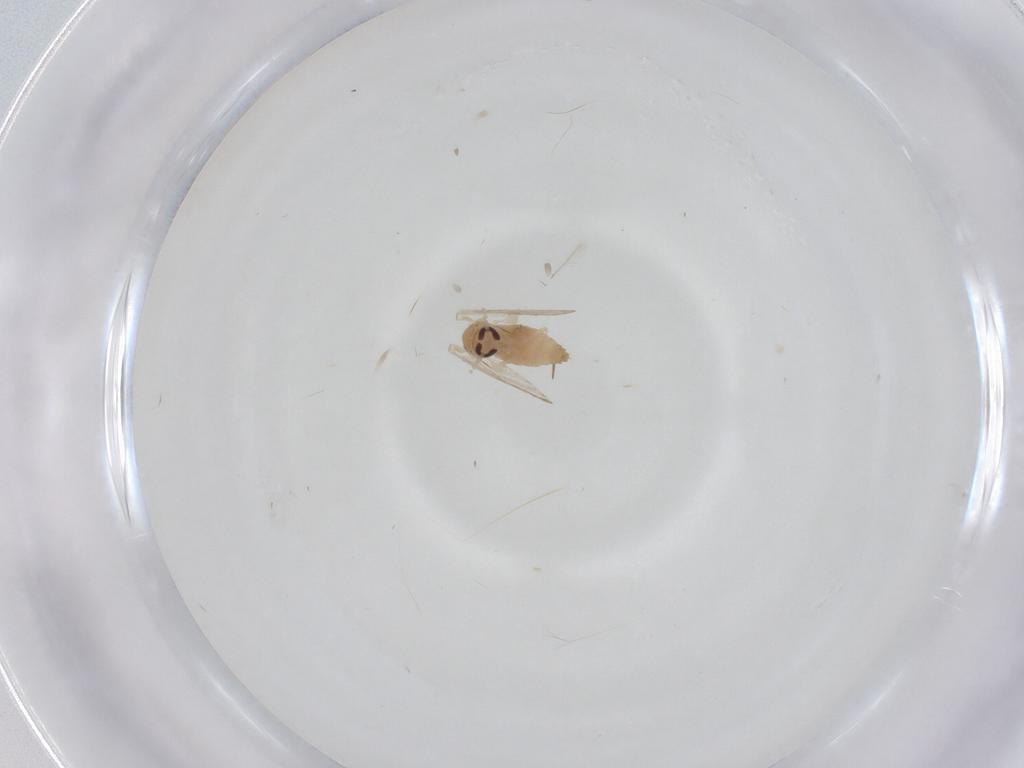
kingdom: Animalia
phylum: Arthropoda
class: Insecta
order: Diptera
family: Psychodidae
